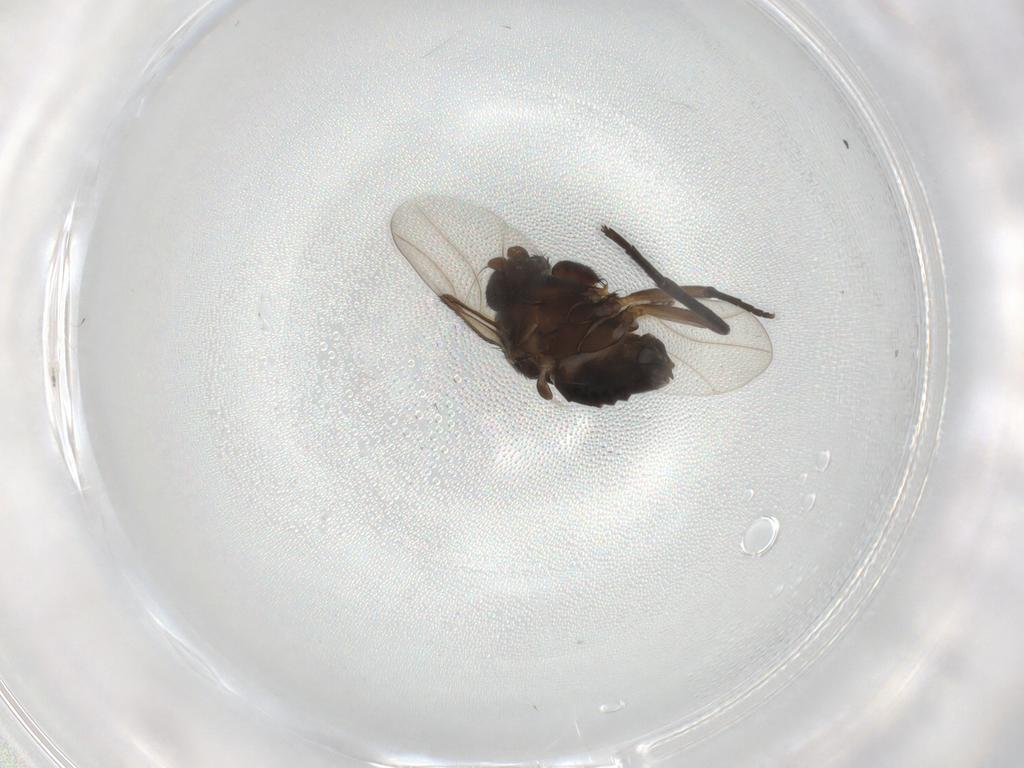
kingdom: Animalia
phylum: Arthropoda
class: Insecta
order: Diptera
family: Phoridae
